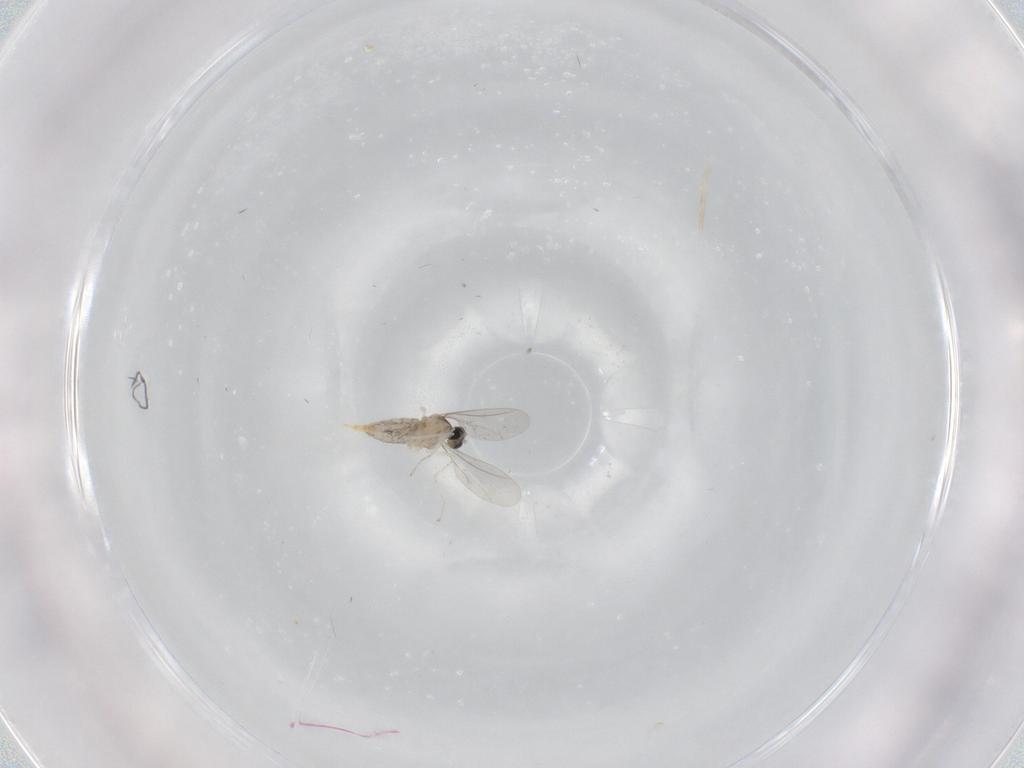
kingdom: Animalia
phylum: Arthropoda
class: Insecta
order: Diptera
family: Cecidomyiidae
